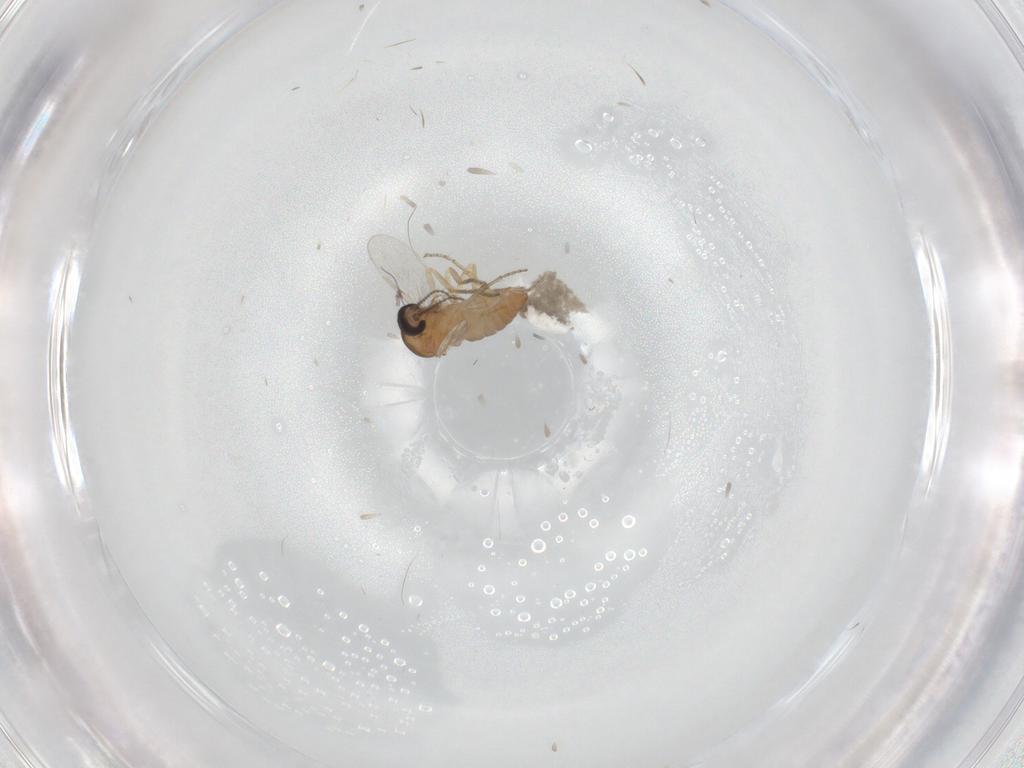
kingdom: Animalia
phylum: Arthropoda
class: Insecta
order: Diptera
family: Ceratopogonidae
